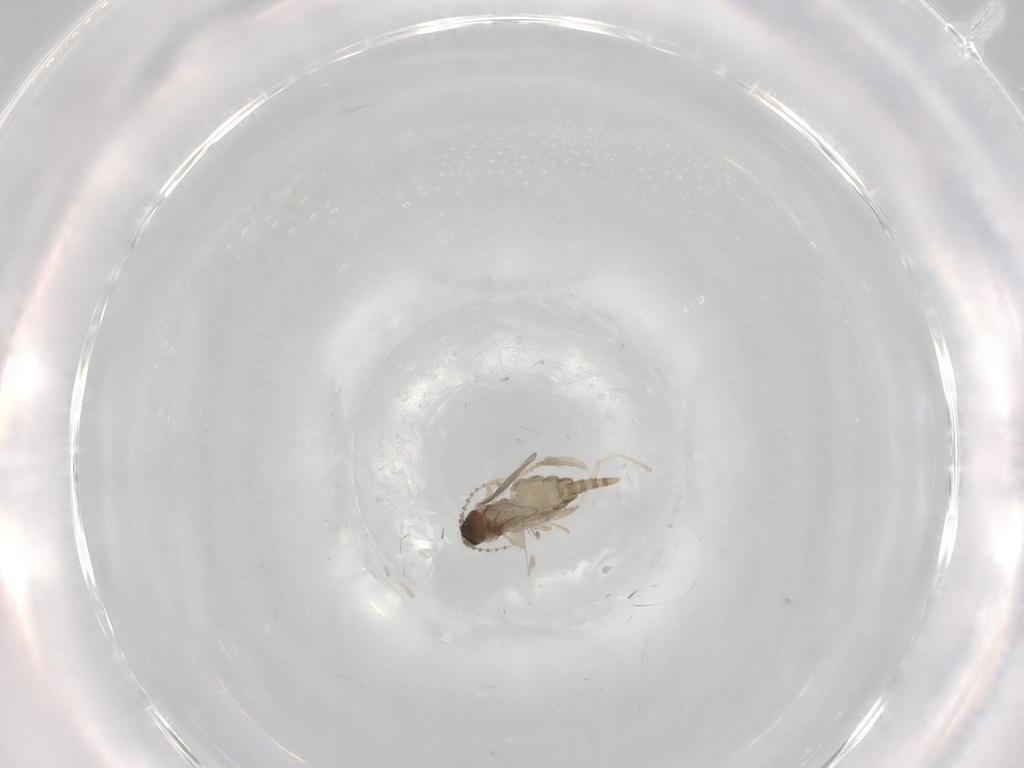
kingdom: Animalia
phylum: Arthropoda
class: Insecta
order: Diptera
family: Cecidomyiidae
